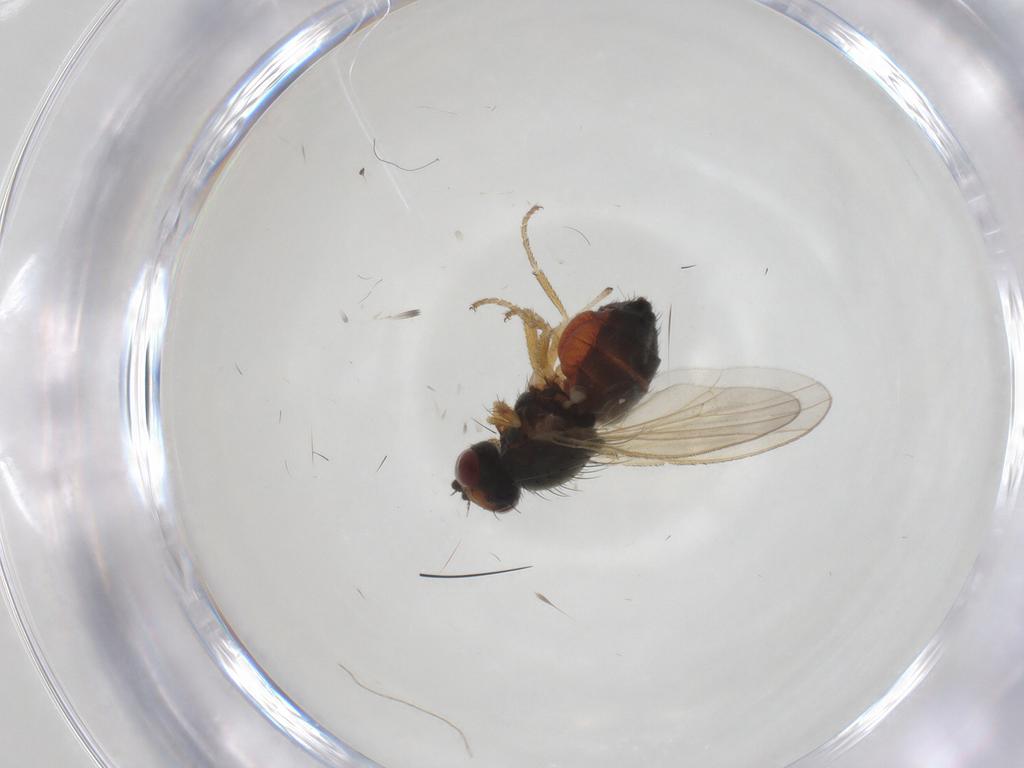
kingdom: Animalia
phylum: Arthropoda
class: Insecta
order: Diptera
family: Heleomyzidae
